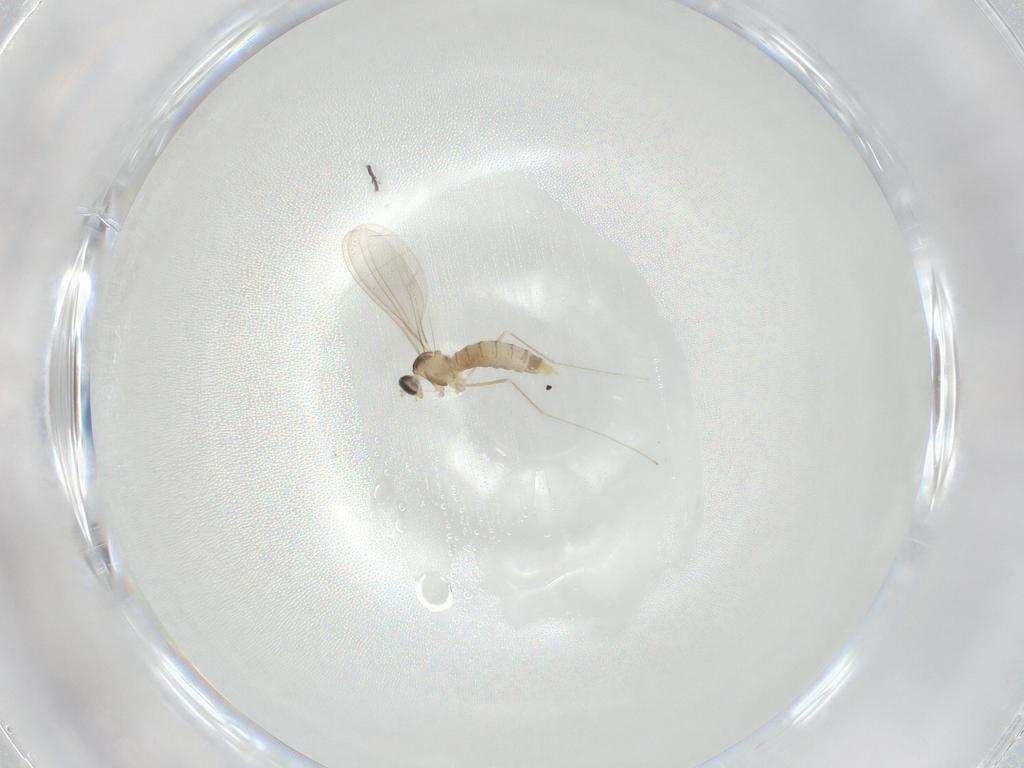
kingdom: Animalia
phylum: Arthropoda
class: Insecta
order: Diptera
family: Cecidomyiidae
